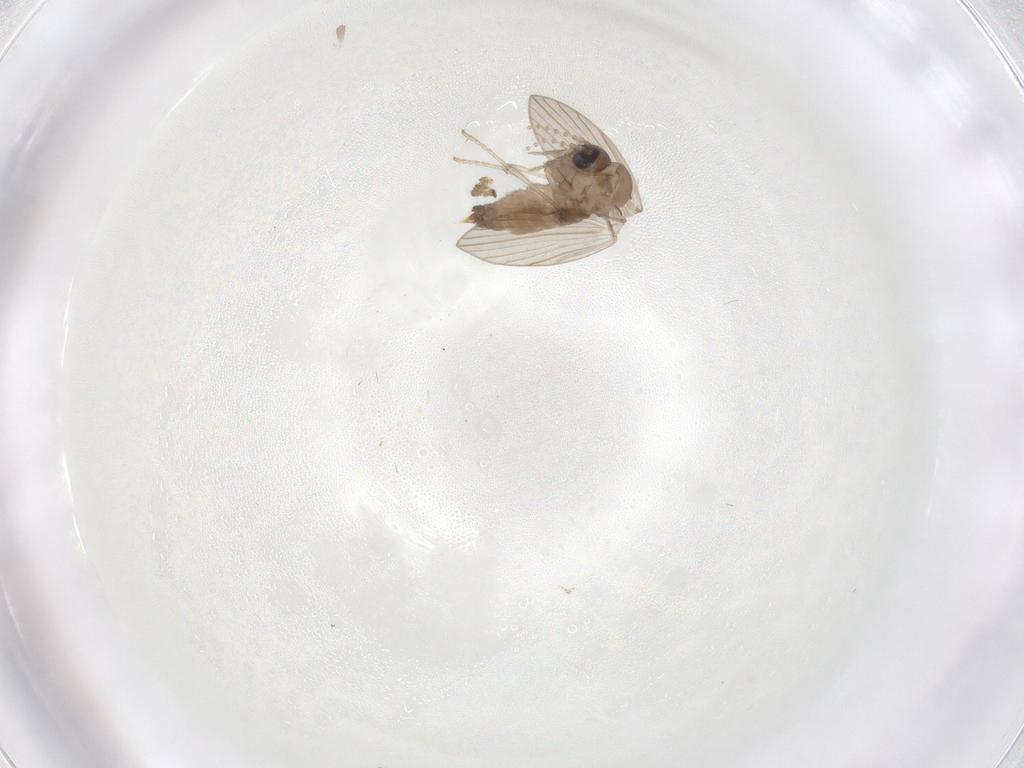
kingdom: Animalia
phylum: Arthropoda
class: Insecta
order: Diptera
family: Psychodidae
